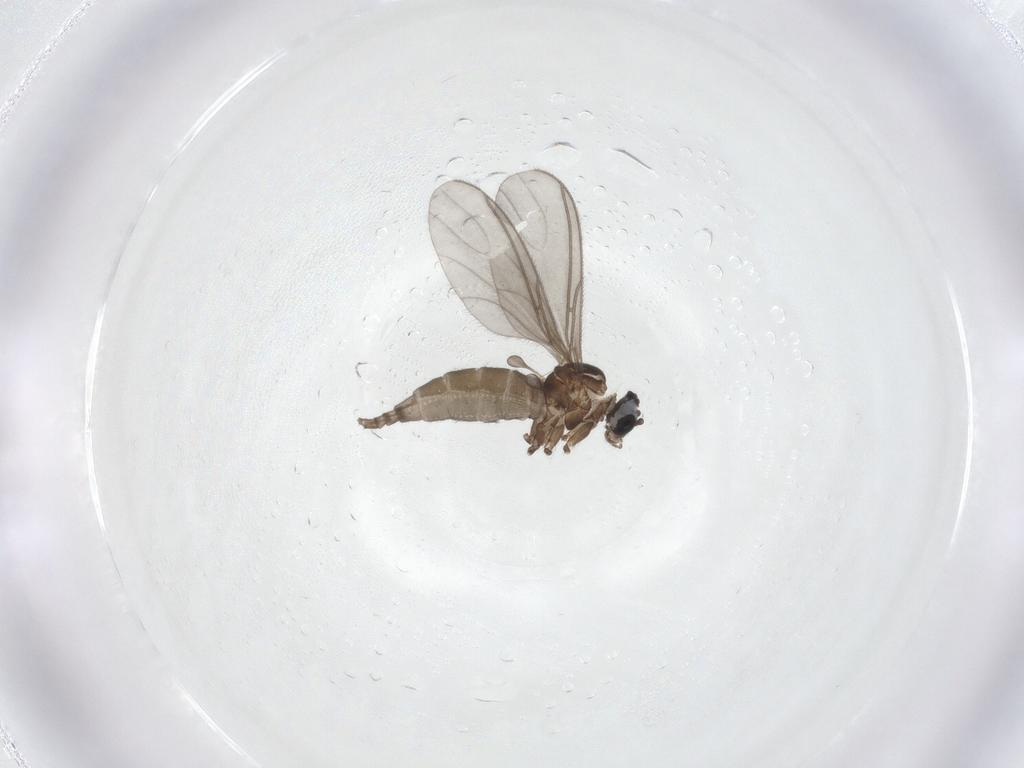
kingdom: Animalia
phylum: Arthropoda
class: Insecta
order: Diptera
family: Sciaridae
